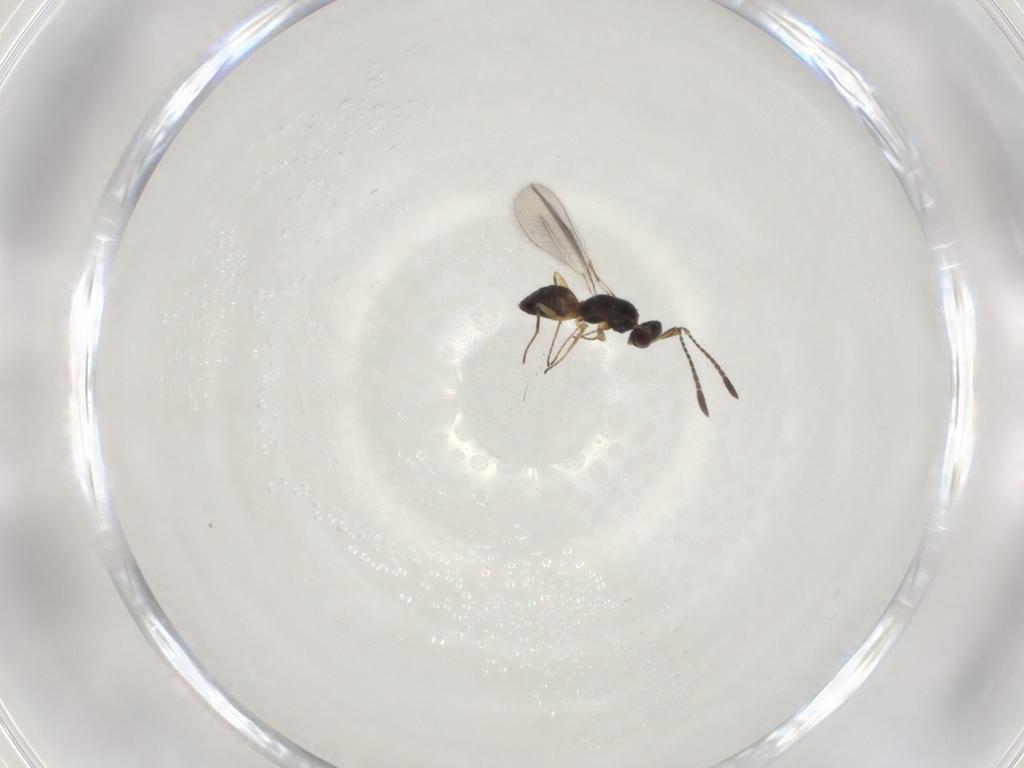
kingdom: Animalia
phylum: Arthropoda
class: Insecta
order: Hymenoptera
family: Mymaridae
